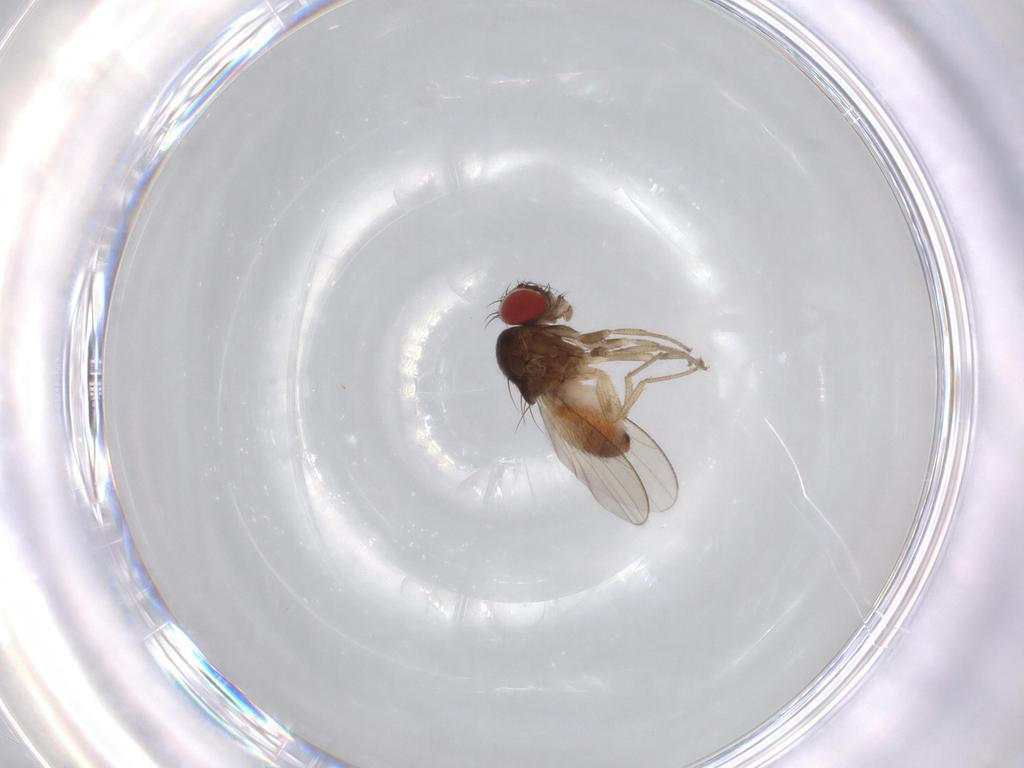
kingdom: Animalia
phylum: Arthropoda
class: Insecta
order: Diptera
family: Drosophilidae
